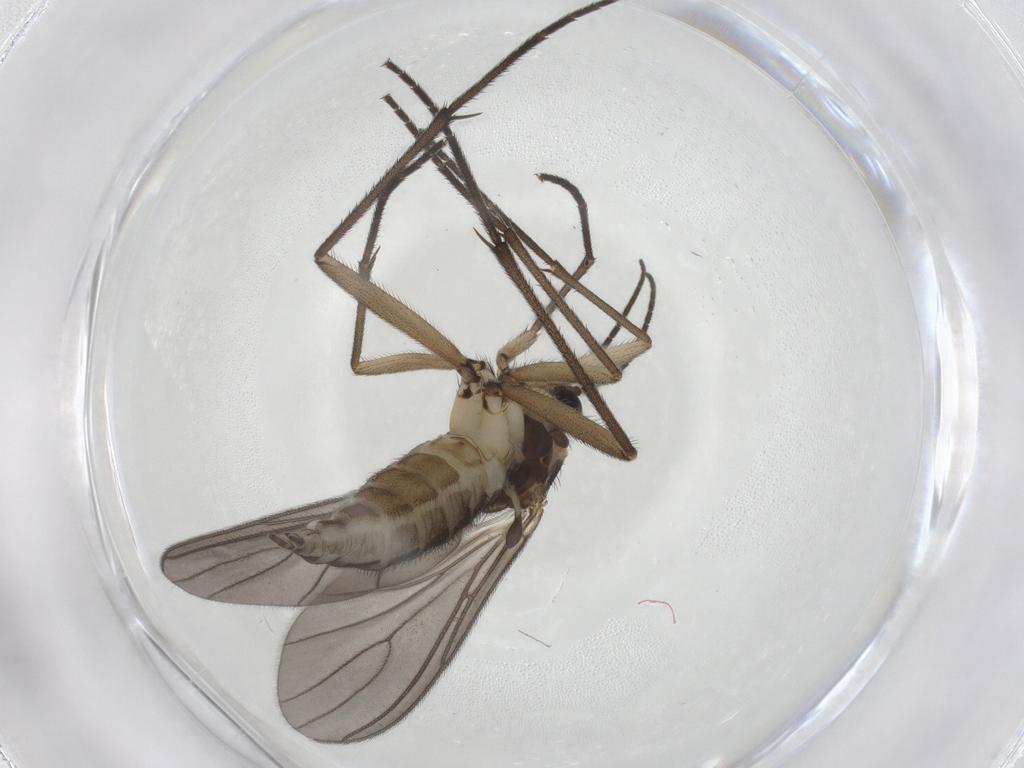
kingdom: Animalia
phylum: Arthropoda
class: Insecta
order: Diptera
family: Sciaridae
